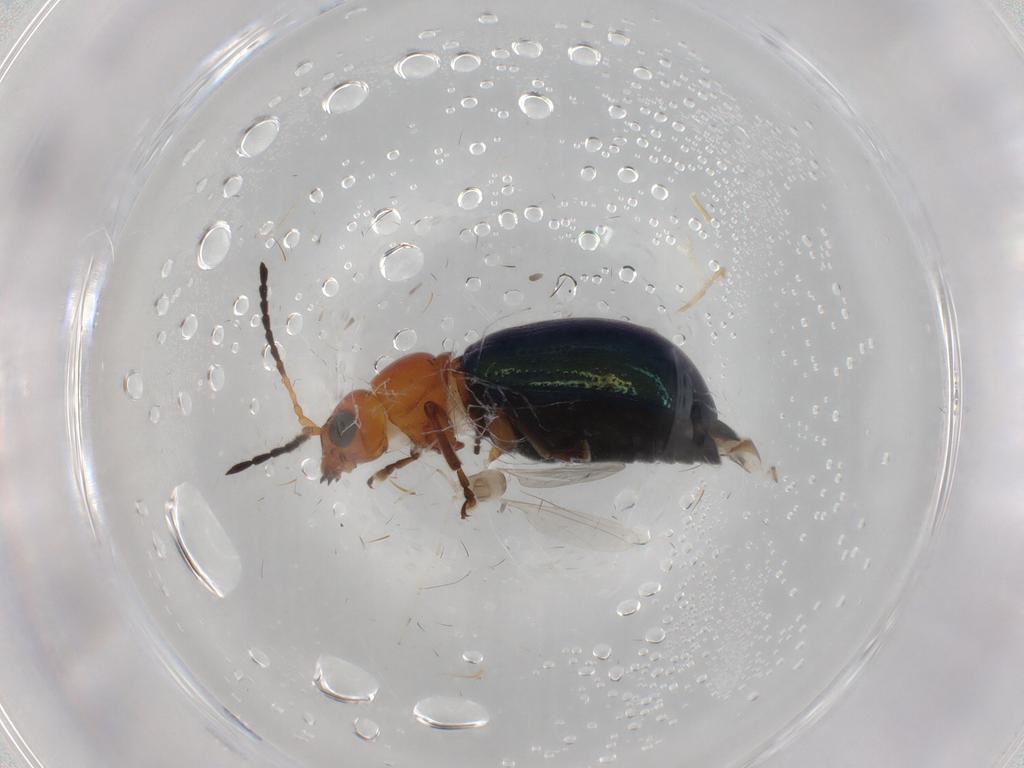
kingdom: Animalia
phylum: Arthropoda
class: Insecta
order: Coleoptera
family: Chrysomelidae
